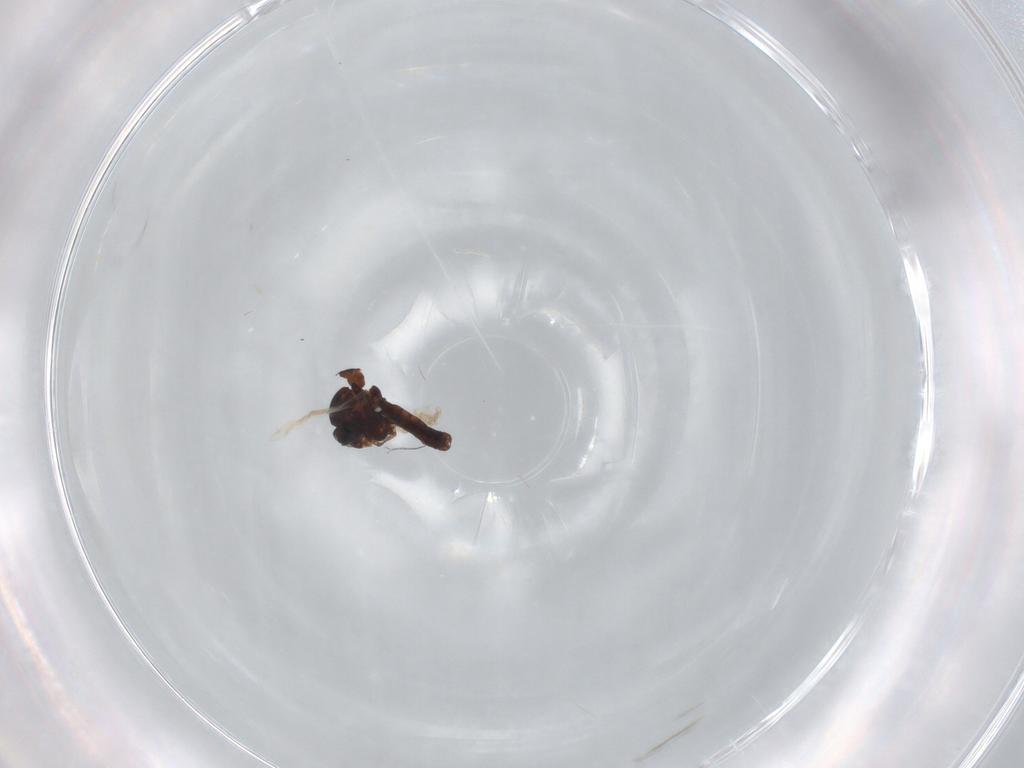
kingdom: Animalia
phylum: Arthropoda
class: Insecta
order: Diptera
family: Ceratopogonidae
